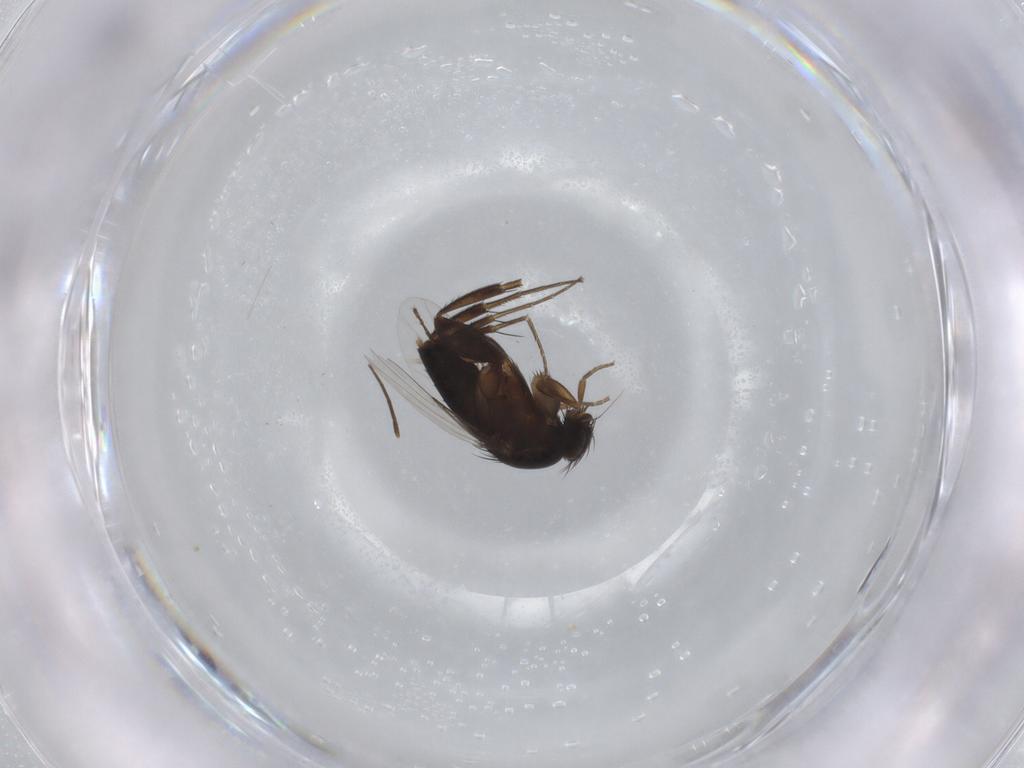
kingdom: Animalia
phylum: Arthropoda
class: Insecta
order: Diptera
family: Phoridae
